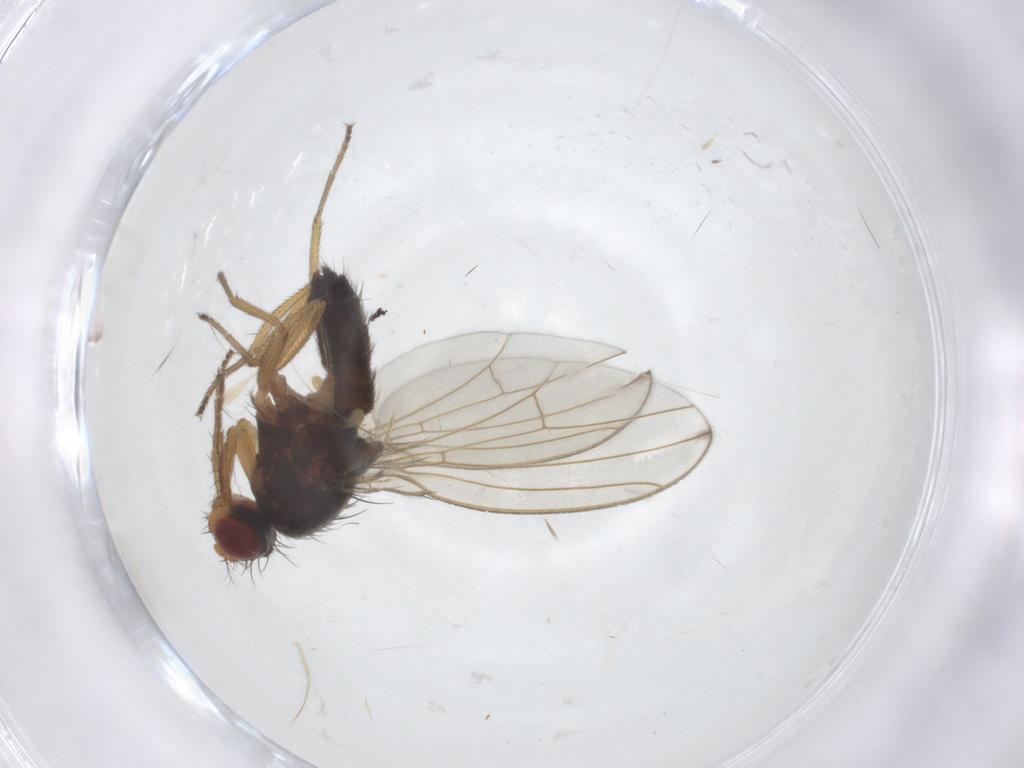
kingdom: Animalia
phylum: Arthropoda
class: Insecta
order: Diptera
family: Drosophilidae
